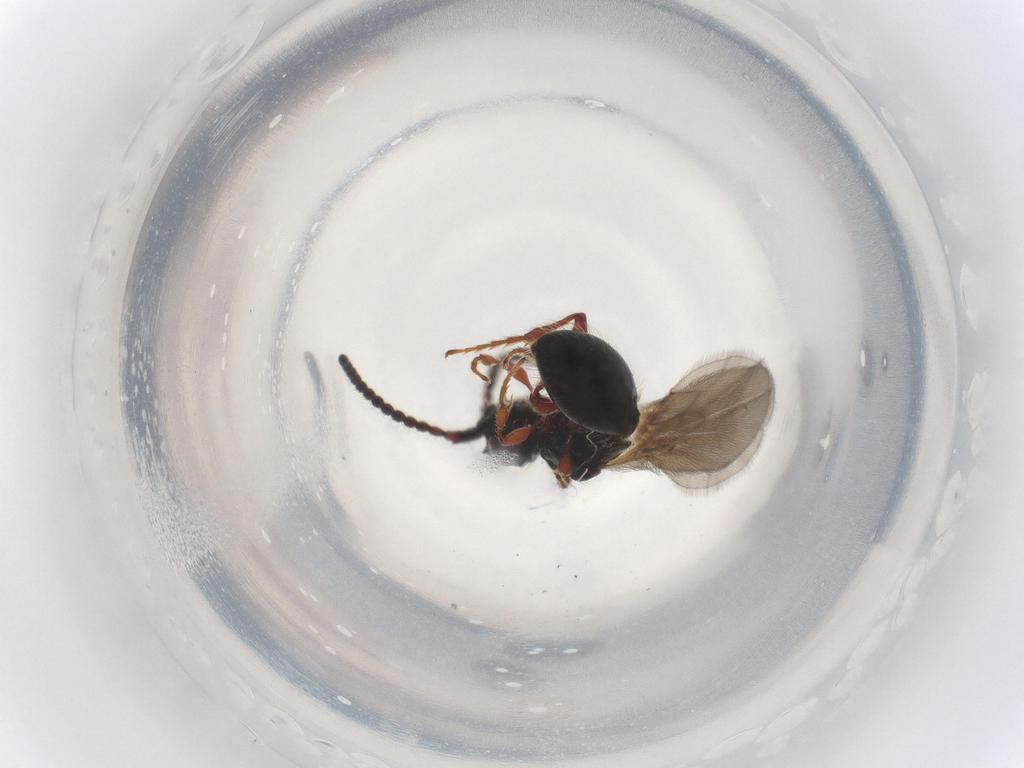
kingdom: Animalia
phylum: Arthropoda
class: Insecta
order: Hymenoptera
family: Diapriidae
